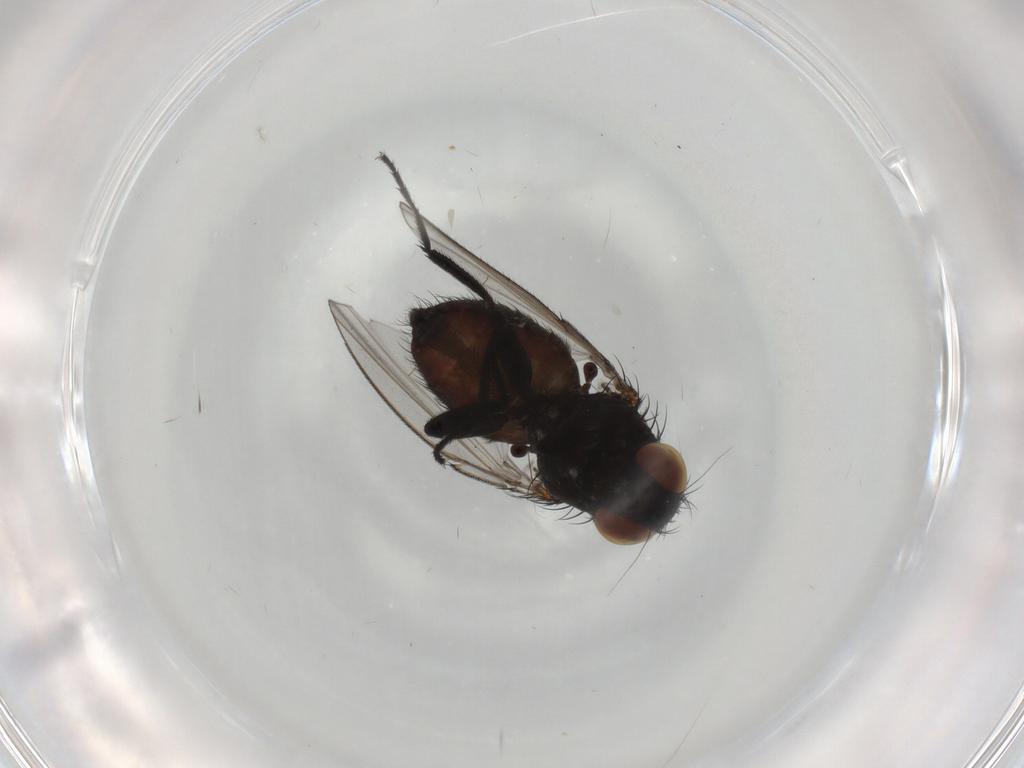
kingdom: Animalia
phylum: Arthropoda
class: Insecta
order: Diptera
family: Milichiidae
